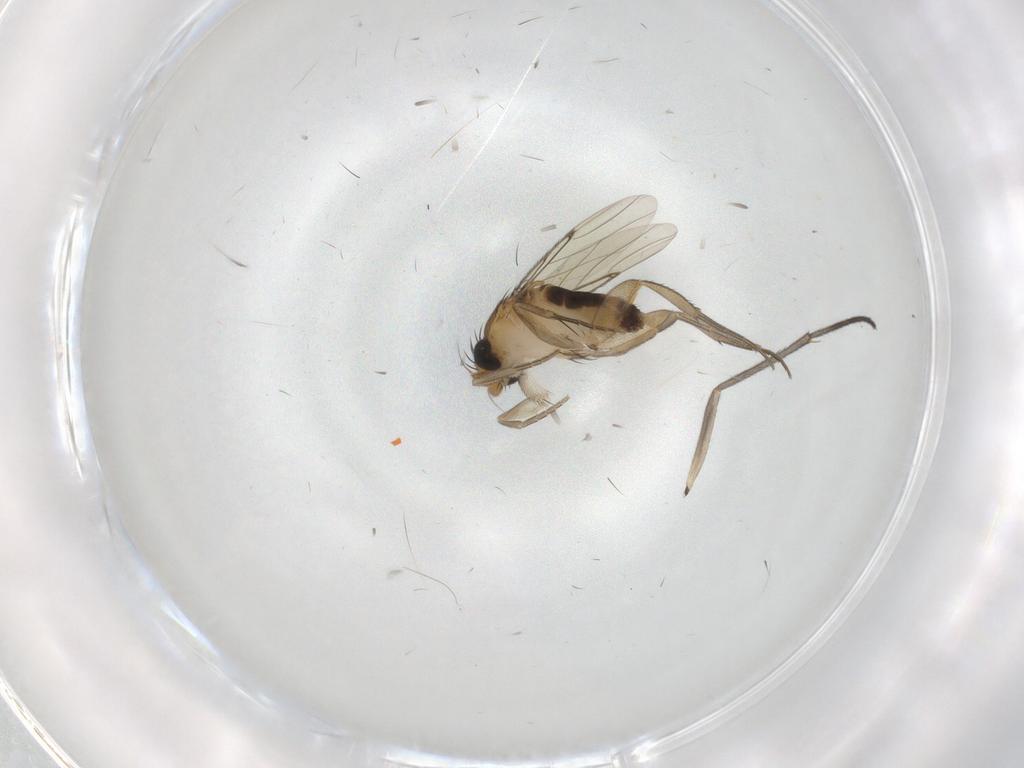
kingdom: Animalia
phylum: Arthropoda
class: Insecta
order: Diptera
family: Phoridae
